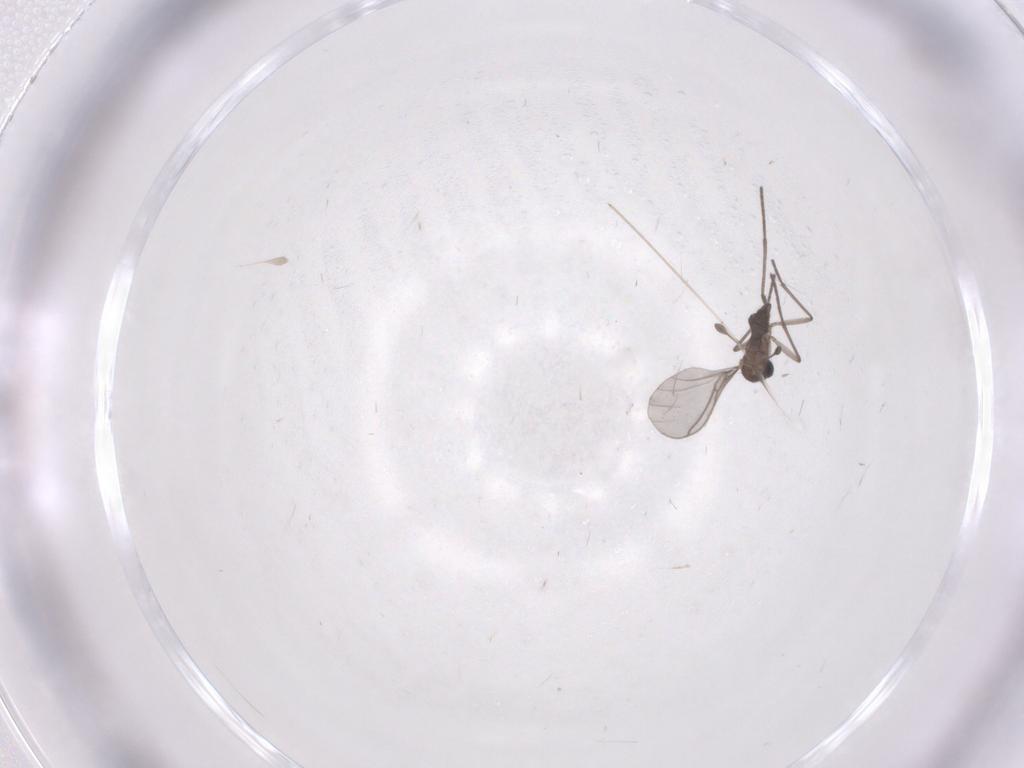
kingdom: Animalia
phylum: Arthropoda
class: Insecta
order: Diptera
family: Sciaridae
